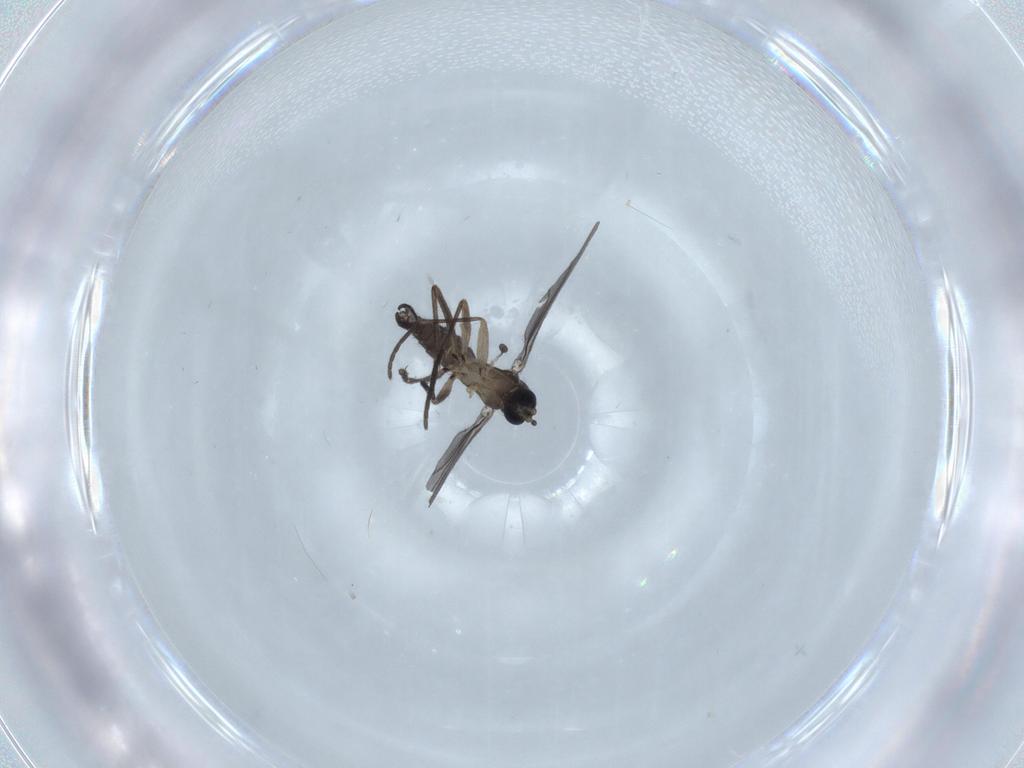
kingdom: Animalia
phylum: Arthropoda
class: Insecta
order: Diptera
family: Sciaridae
